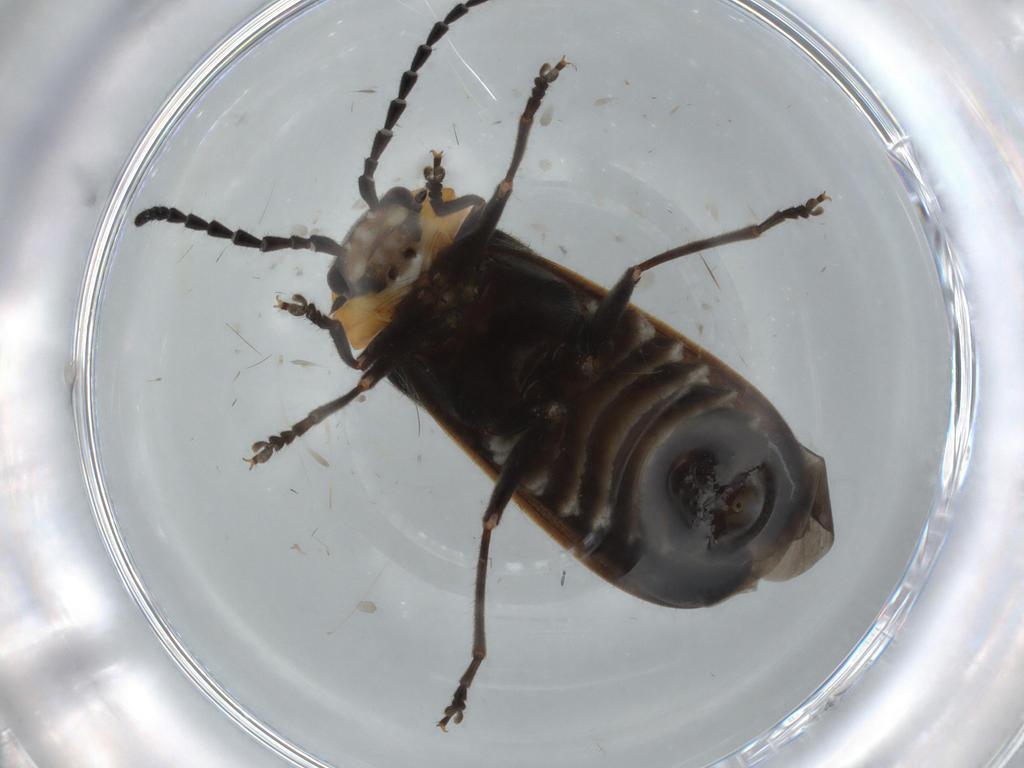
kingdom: Animalia
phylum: Arthropoda
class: Insecta
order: Coleoptera
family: Cantharidae
